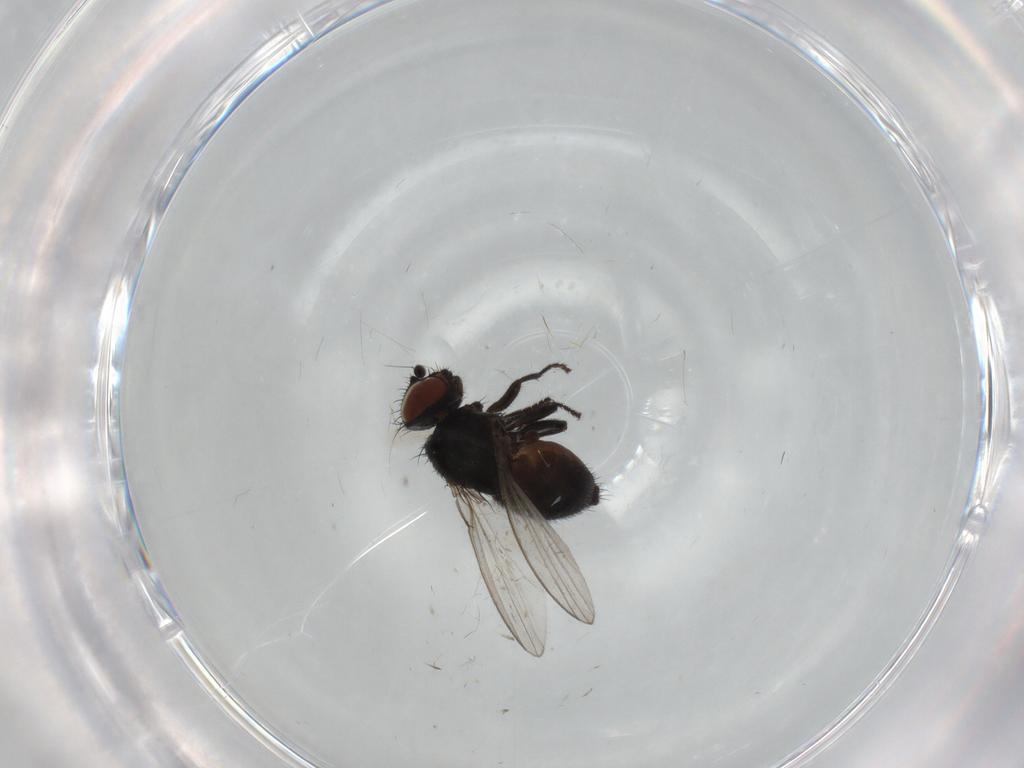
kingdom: Animalia
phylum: Arthropoda
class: Insecta
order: Diptera
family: Milichiidae
